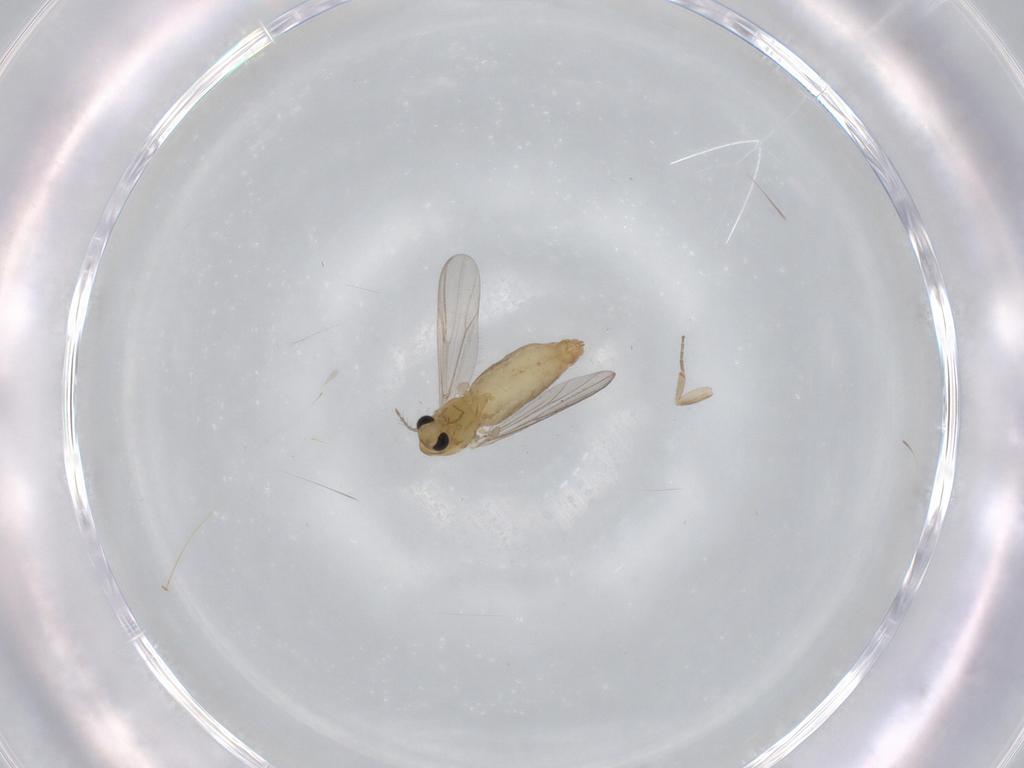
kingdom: Animalia
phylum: Arthropoda
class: Insecta
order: Diptera
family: Chironomidae
